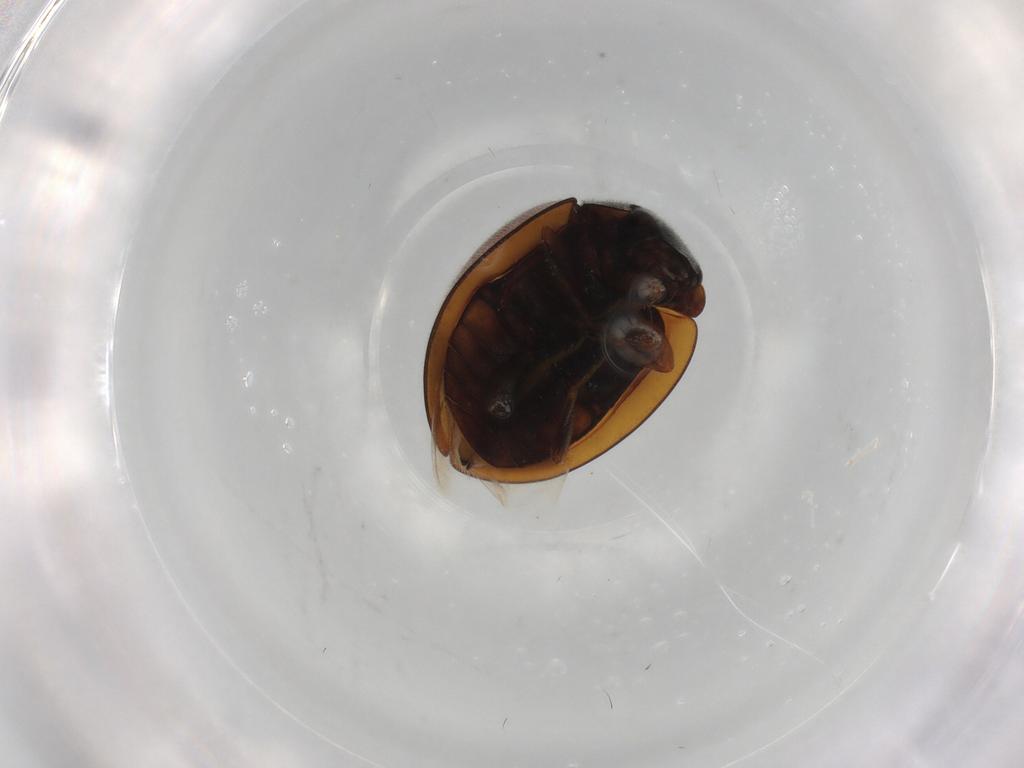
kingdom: Animalia
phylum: Arthropoda
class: Insecta
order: Coleoptera
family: Coccinellidae
